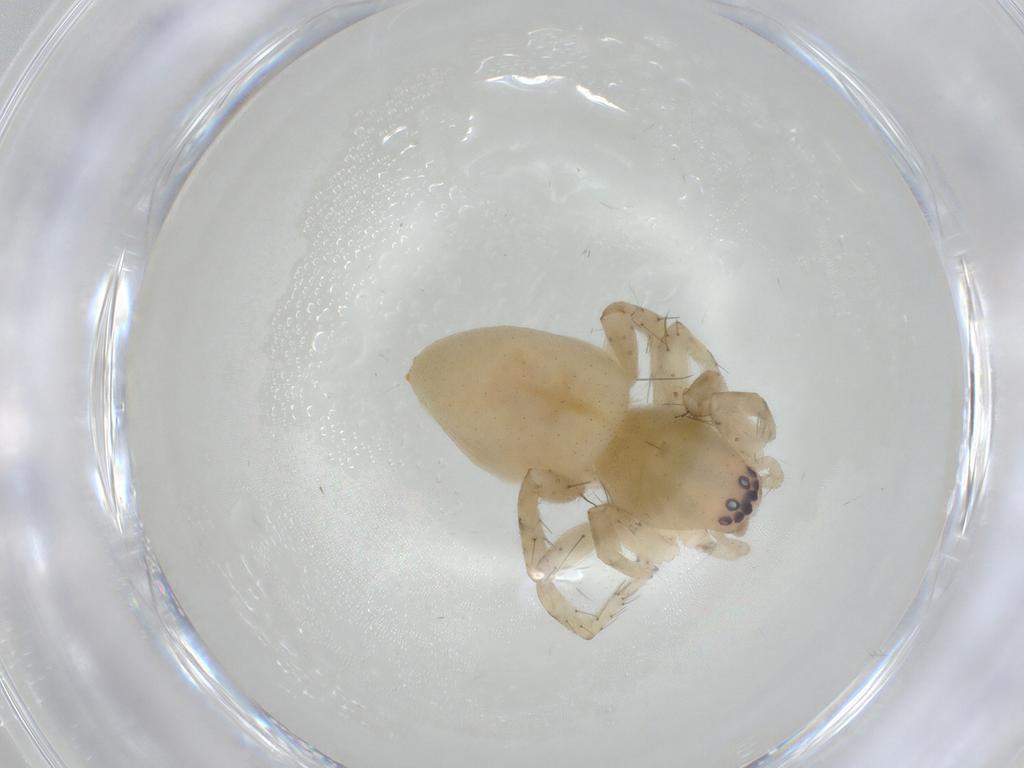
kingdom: Animalia
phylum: Arthropoda
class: Arachnida
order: Araneae
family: Clubionidae
